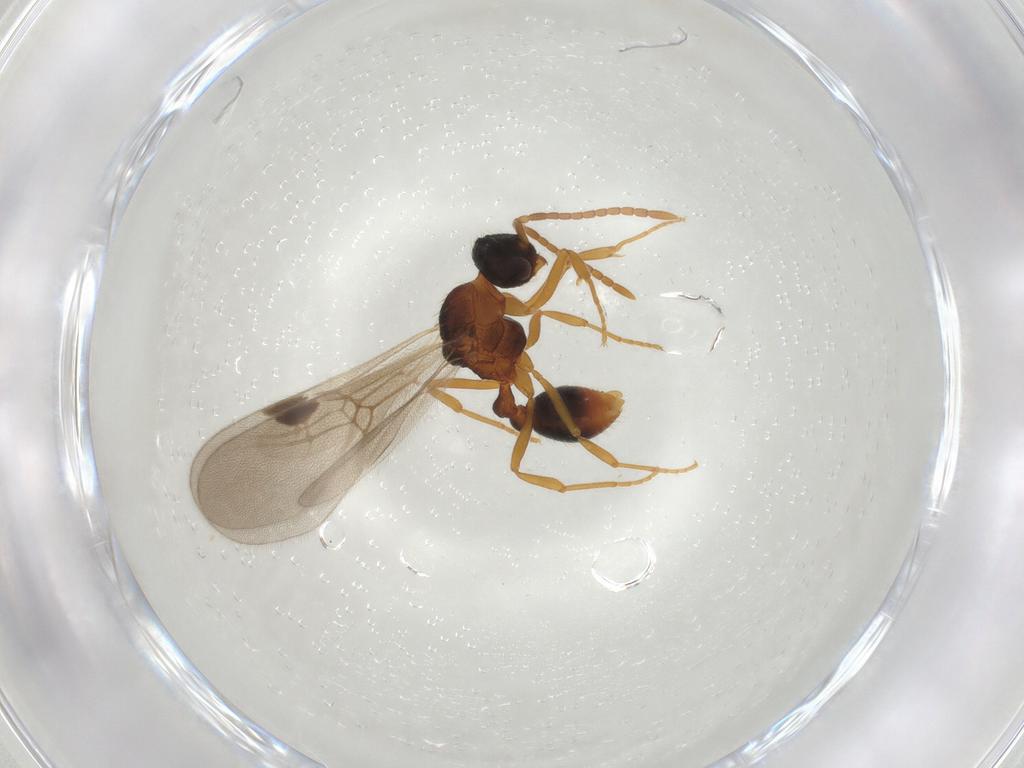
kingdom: Animalia
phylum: Arthropoda
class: Insecta
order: Hymenoptera
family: Formicidae
